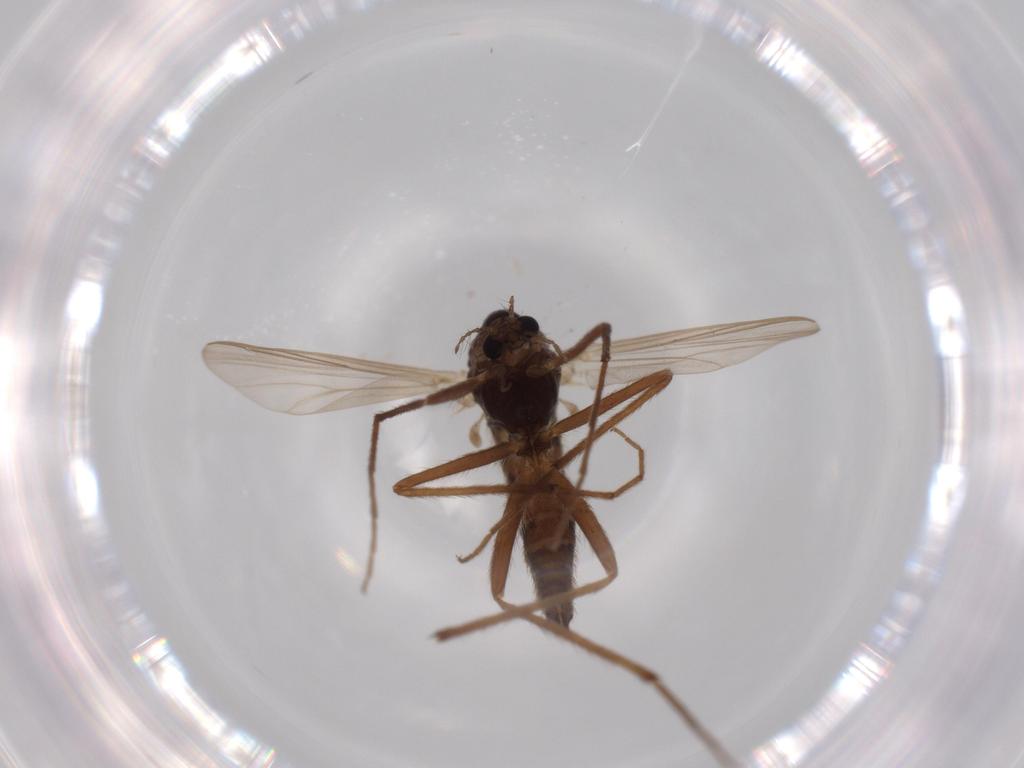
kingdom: Animalia
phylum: Arthropoda
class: Insecta
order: Diptera
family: Chironomidae
